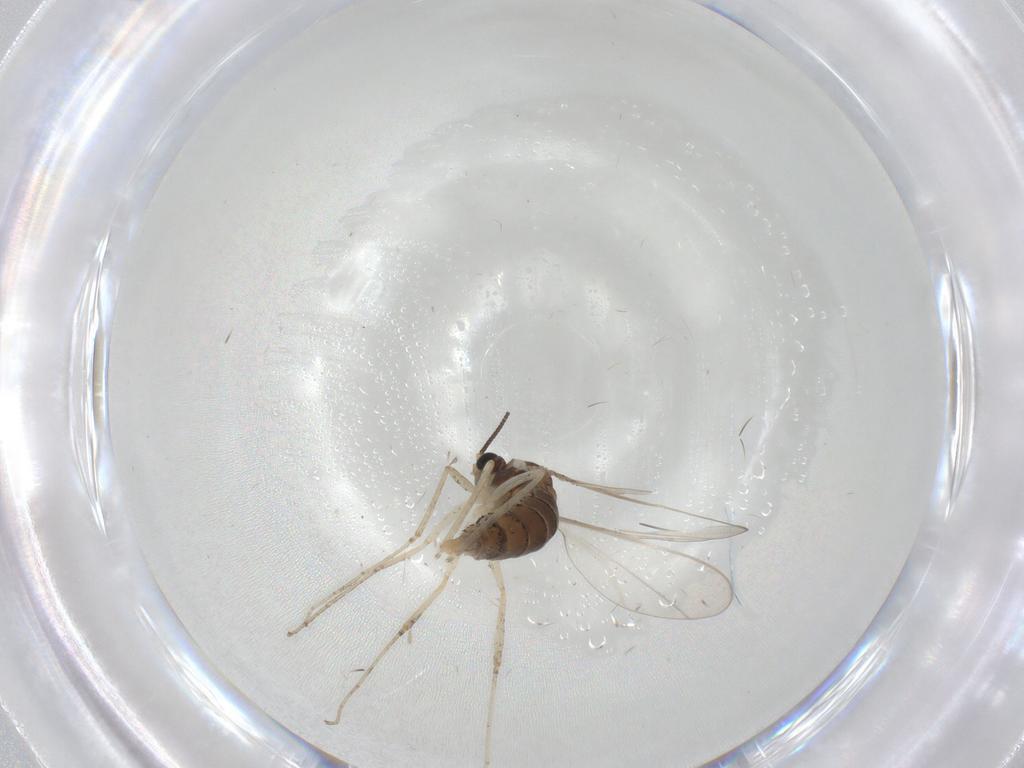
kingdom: Animalia
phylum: Arthropoda
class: Insecta
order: Diptera
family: Cecidomyiidae
